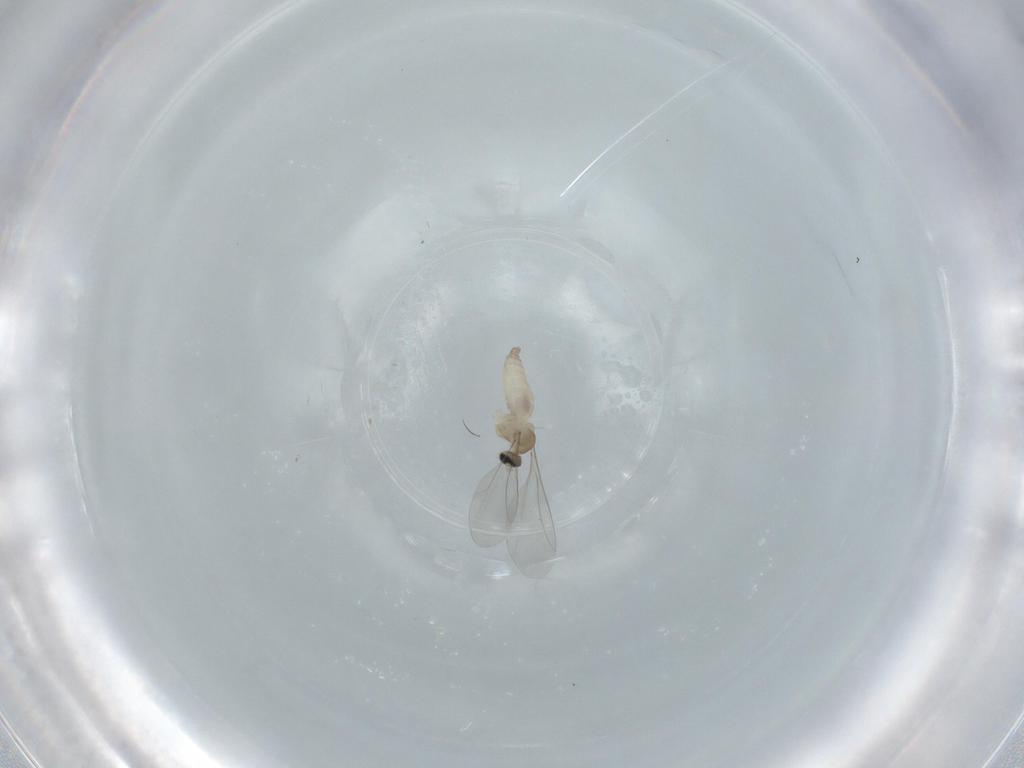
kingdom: Animalia
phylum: Arthropoda
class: Insecta
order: Diptera
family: Cecidomyiidae
